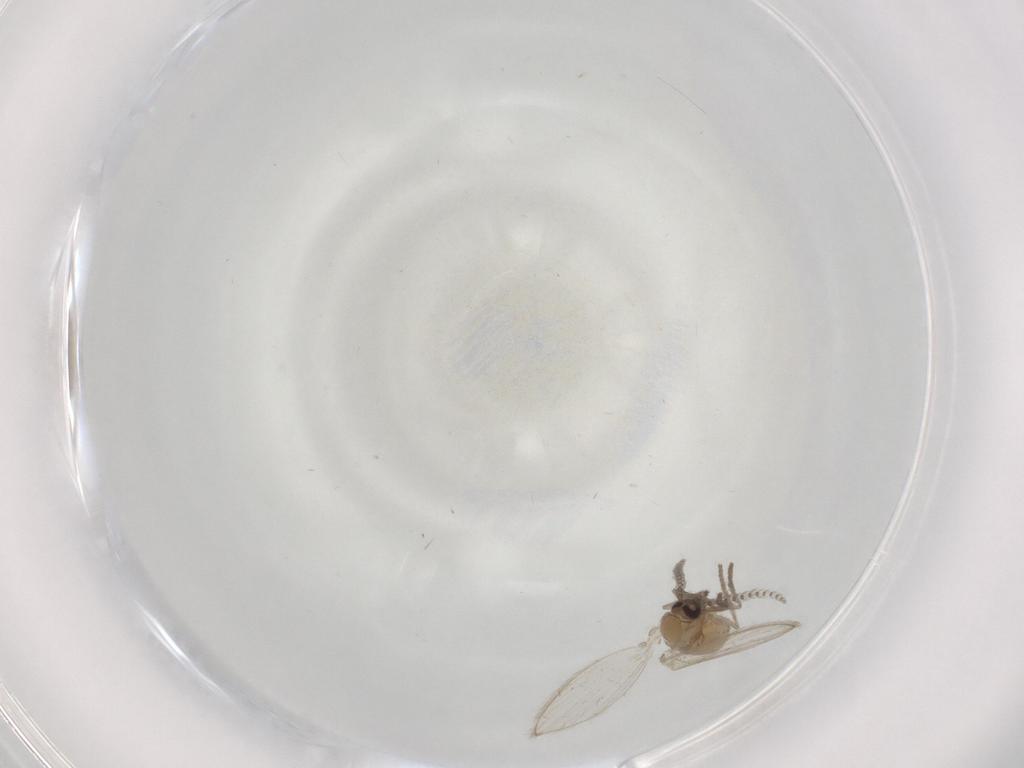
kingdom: Animalia
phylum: Arthropoda
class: Insecta
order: Diptera
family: Psychodidae
